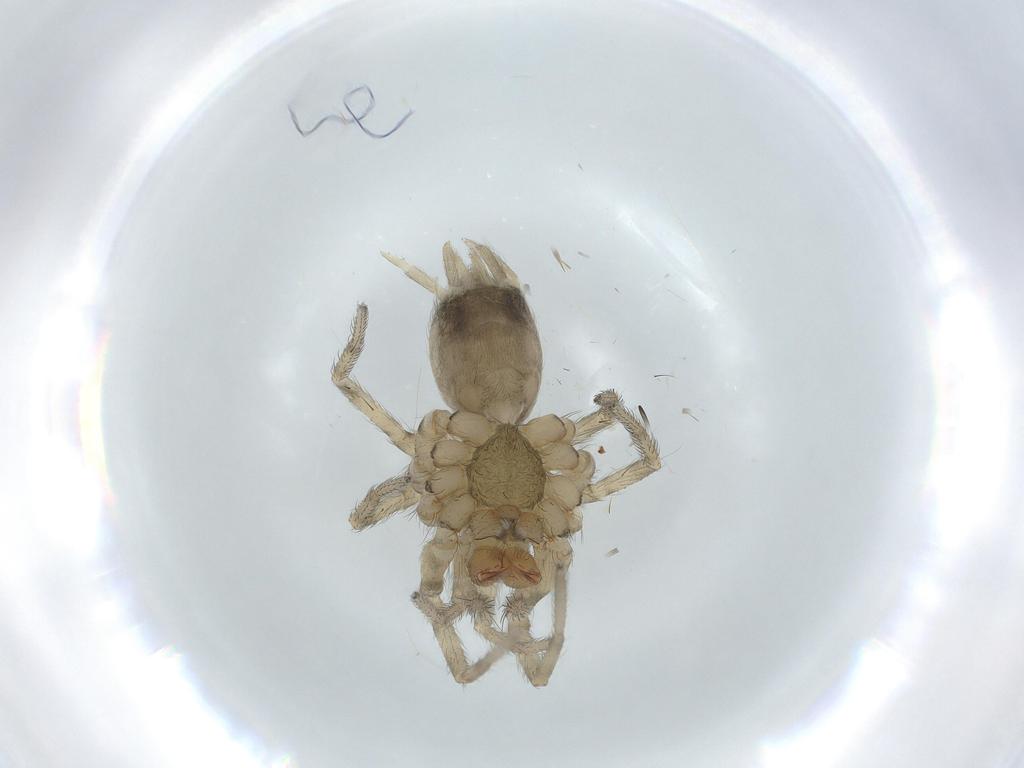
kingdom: Animalia
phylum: Arthropoda
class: Arachnida
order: Araneae
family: Hahniidae
